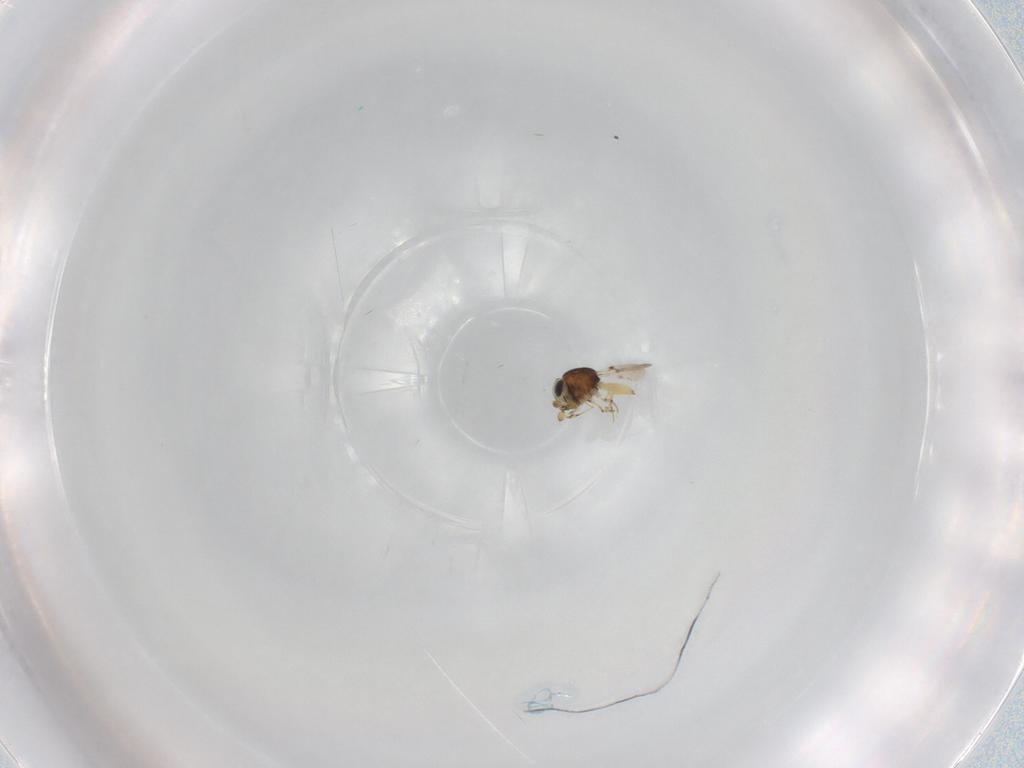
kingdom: Animalia
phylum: Arthropoda
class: Insecta
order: Hymenoptera
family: Scelionidae
